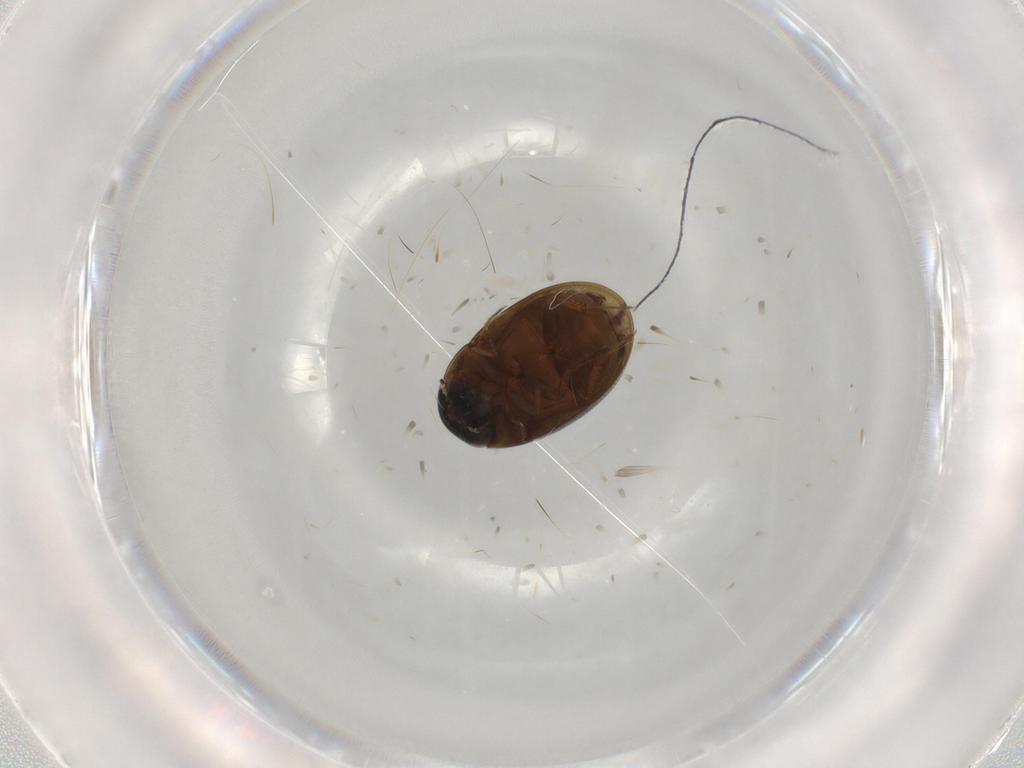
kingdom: Animalia
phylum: Arthropoda
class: Insecta
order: Coleoptera
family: Hydrophilidae
